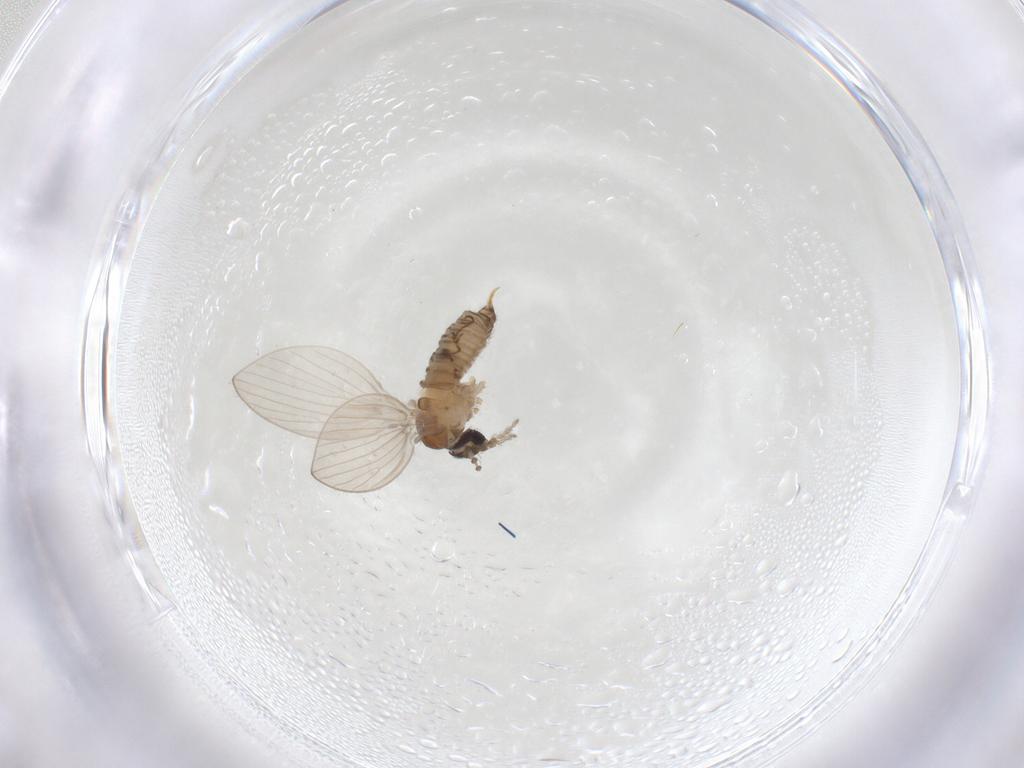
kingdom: Animalia
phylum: Arthropoda
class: Insecta
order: Diptera
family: Psychodidae
